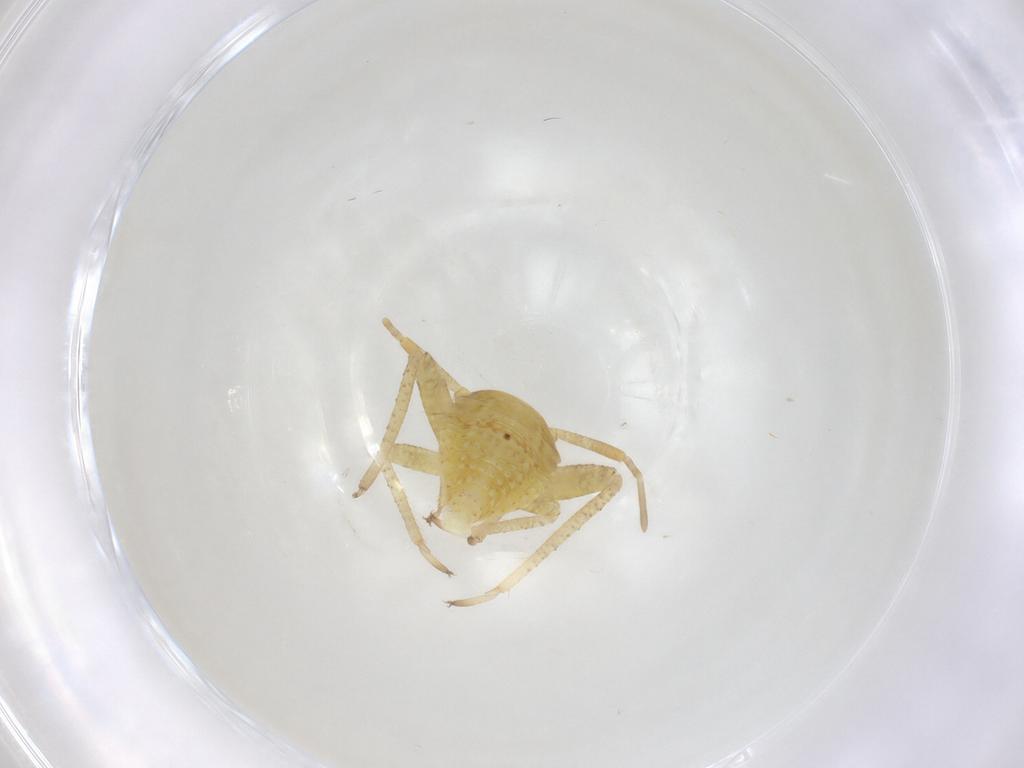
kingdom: Animalia
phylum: Arthropoda
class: Insecta
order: Hemiptera
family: Miridae
